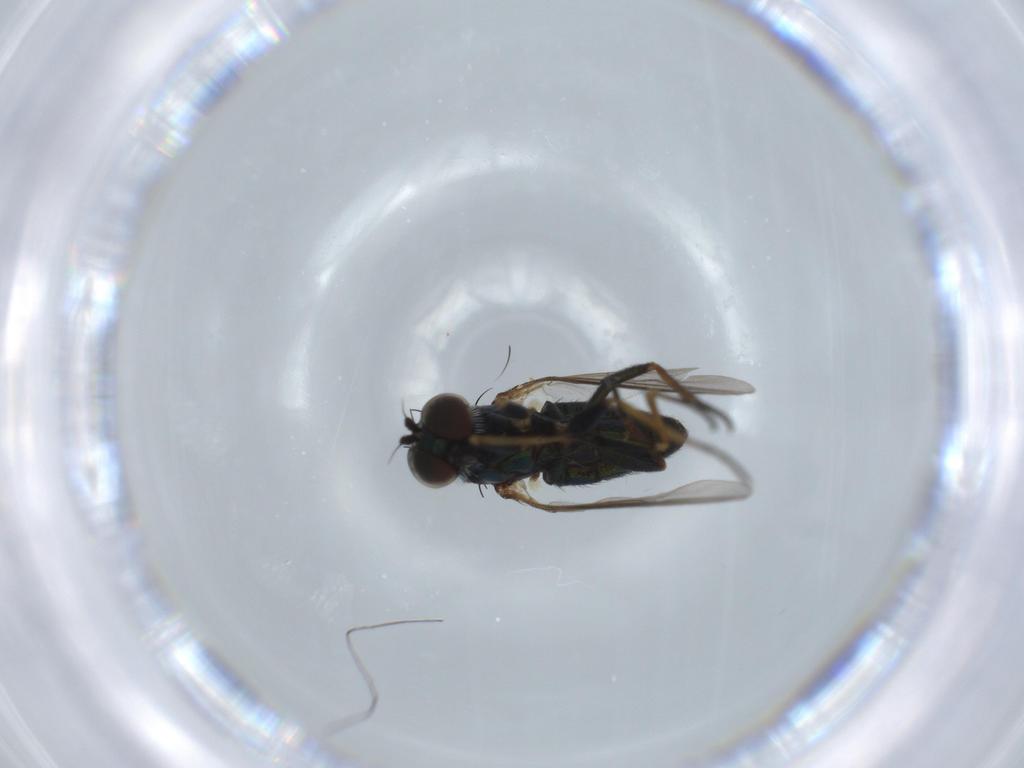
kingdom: Animalia
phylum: Arthropoda
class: Insecta
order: Diptera
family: Dolichopodidae
